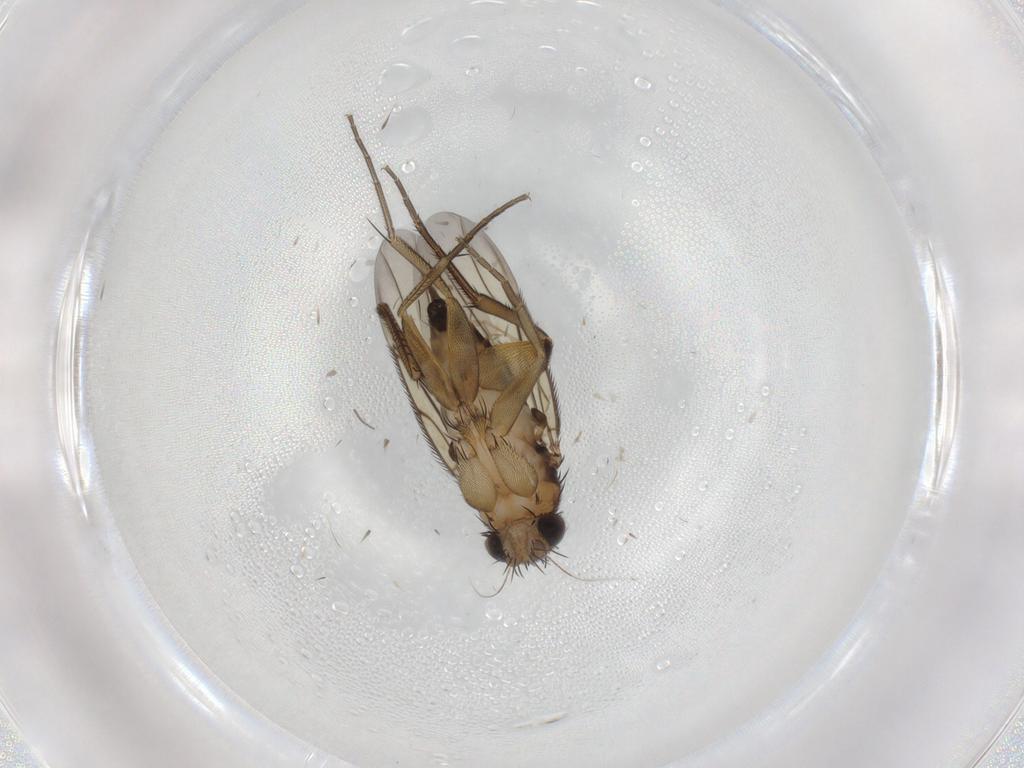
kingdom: Animalia
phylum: Arthropoda
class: Insecta
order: Diptera
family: Phoridae
